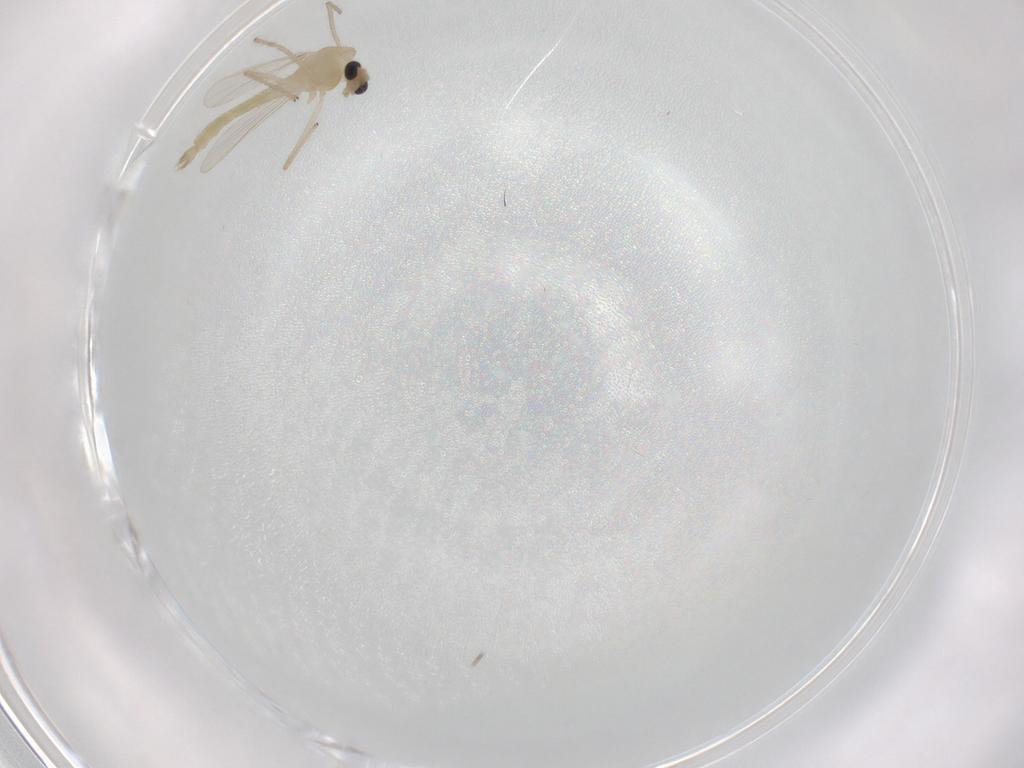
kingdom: Animalia
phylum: Arthropoda
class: Insecta
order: Diptera
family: Chironomidae
